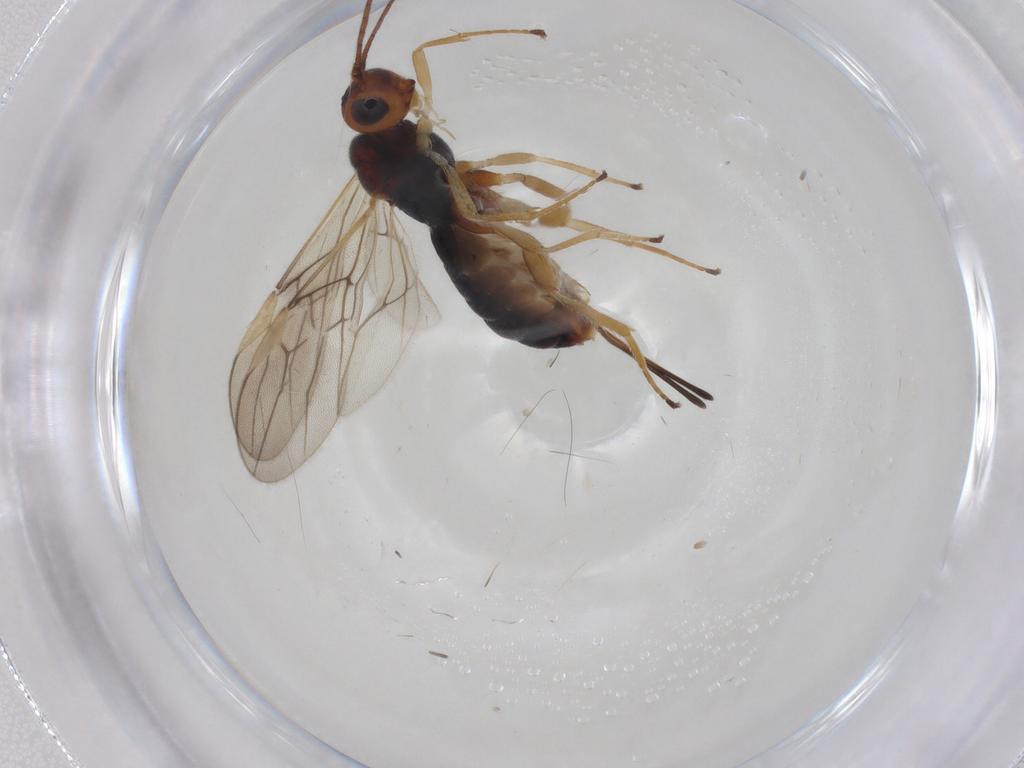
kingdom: Animalia
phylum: Arthropoda
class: Insecta
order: Hymenoptera
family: Braconidae
